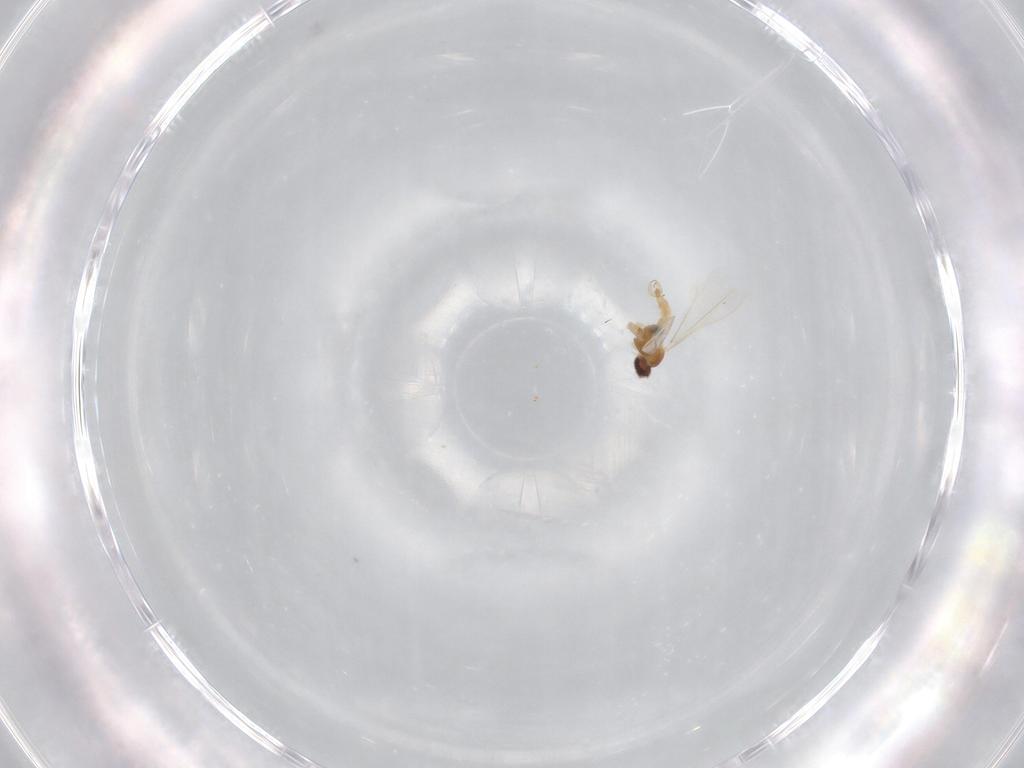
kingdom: Animalia
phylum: Arthropoda
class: Insecta
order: Diptera
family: Cecidomyiidae
